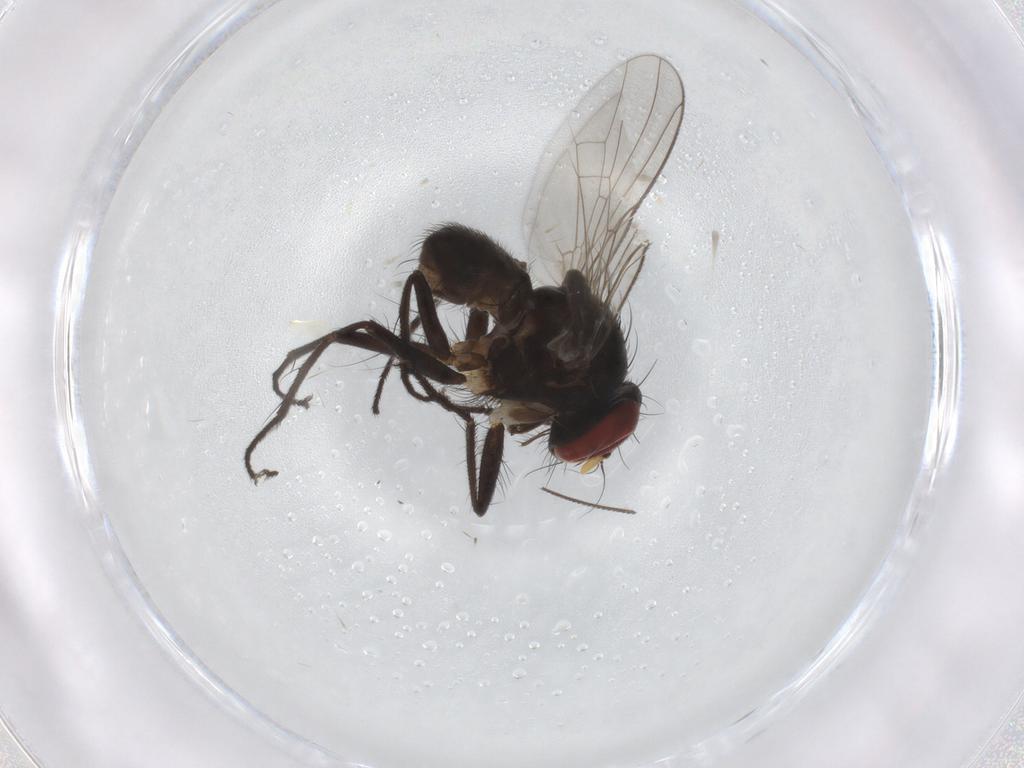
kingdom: Animalia
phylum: Arthropoda
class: Insecta
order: Diptera
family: Muscidae
